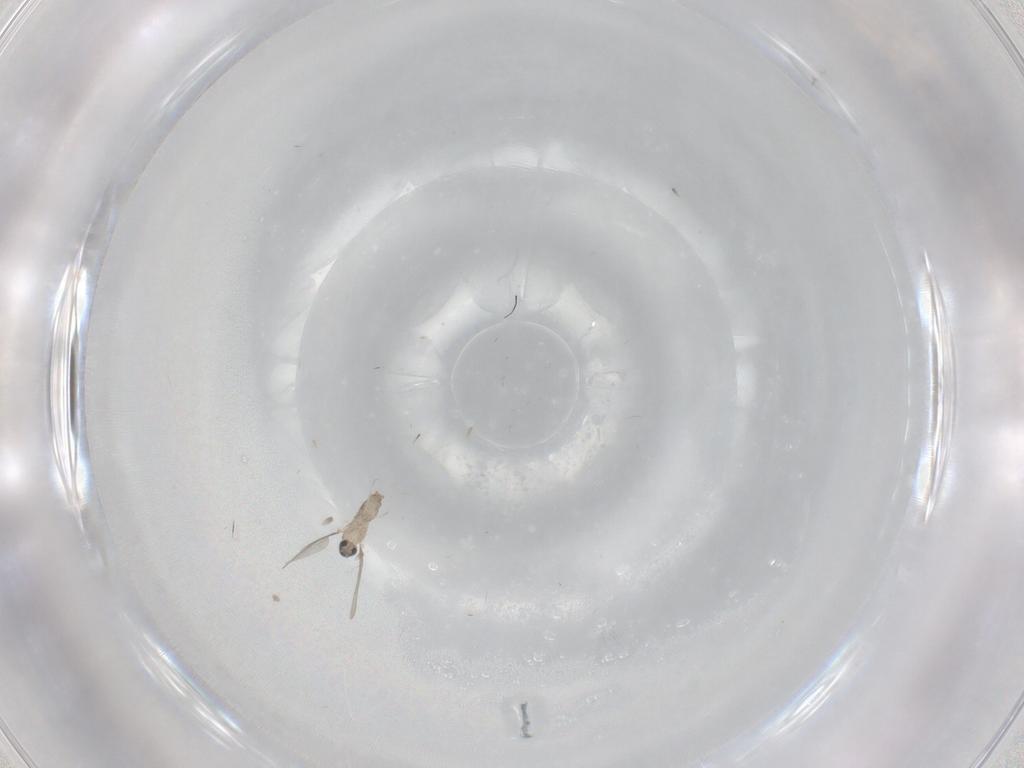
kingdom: Animalia
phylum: Arthropoda
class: Insecta
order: Diptera
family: Cecidomyiidae
